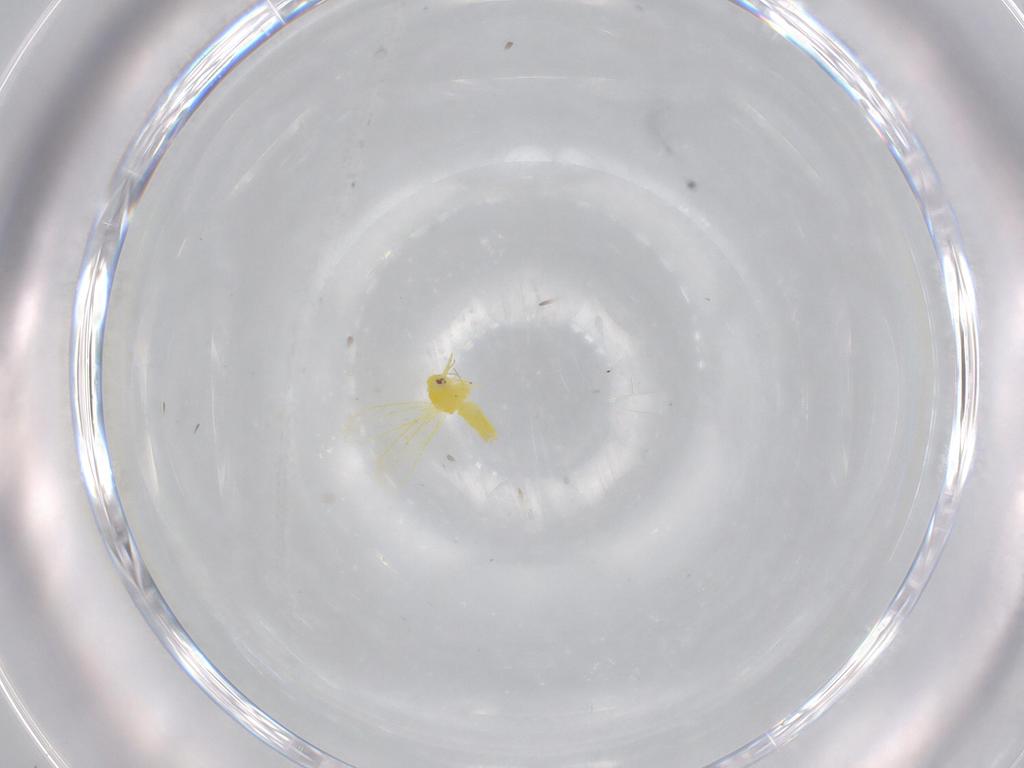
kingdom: Animalia
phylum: Arthropoda
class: Insecta
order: Hemiptera
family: Aleyrodidae
